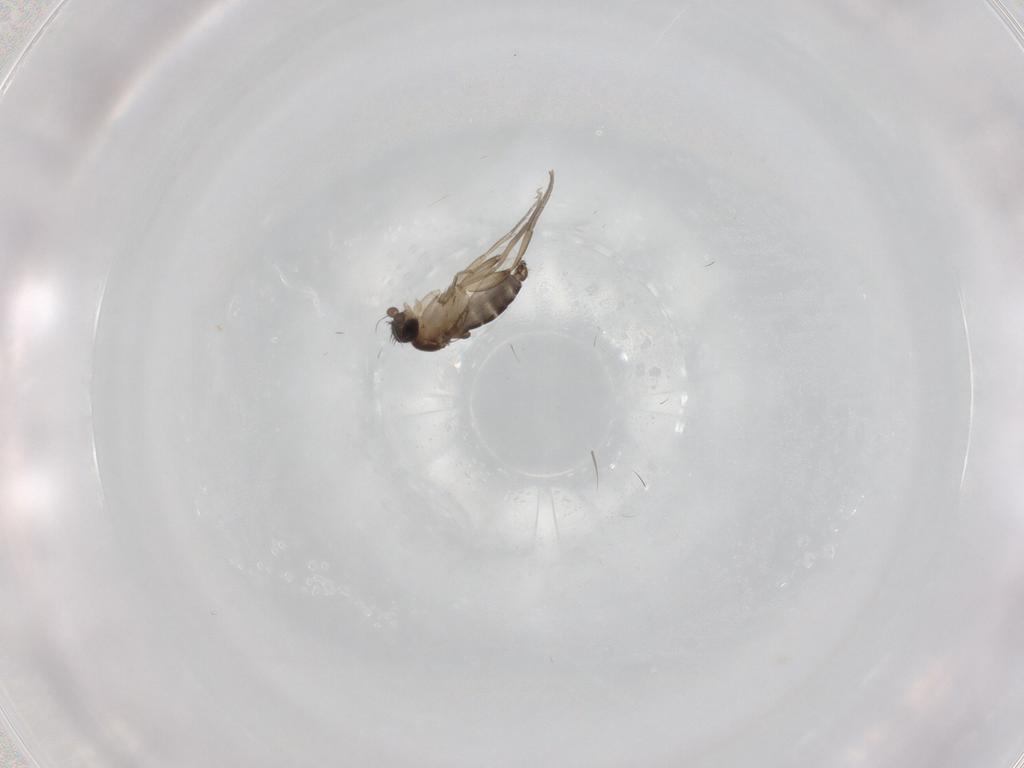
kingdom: Animalia
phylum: Arthropoda
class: Insecta
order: Diptera
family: Phoridae
